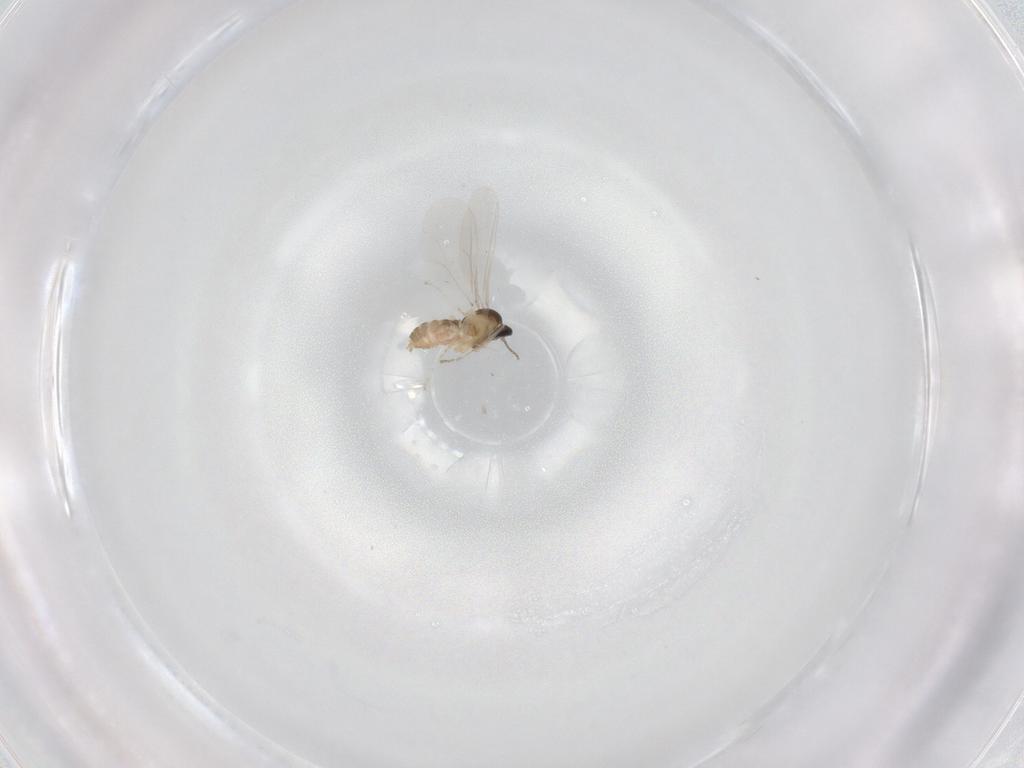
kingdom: Animalia
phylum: Arthropoda
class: Insecta
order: Diptera
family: Cecidomyiidae
